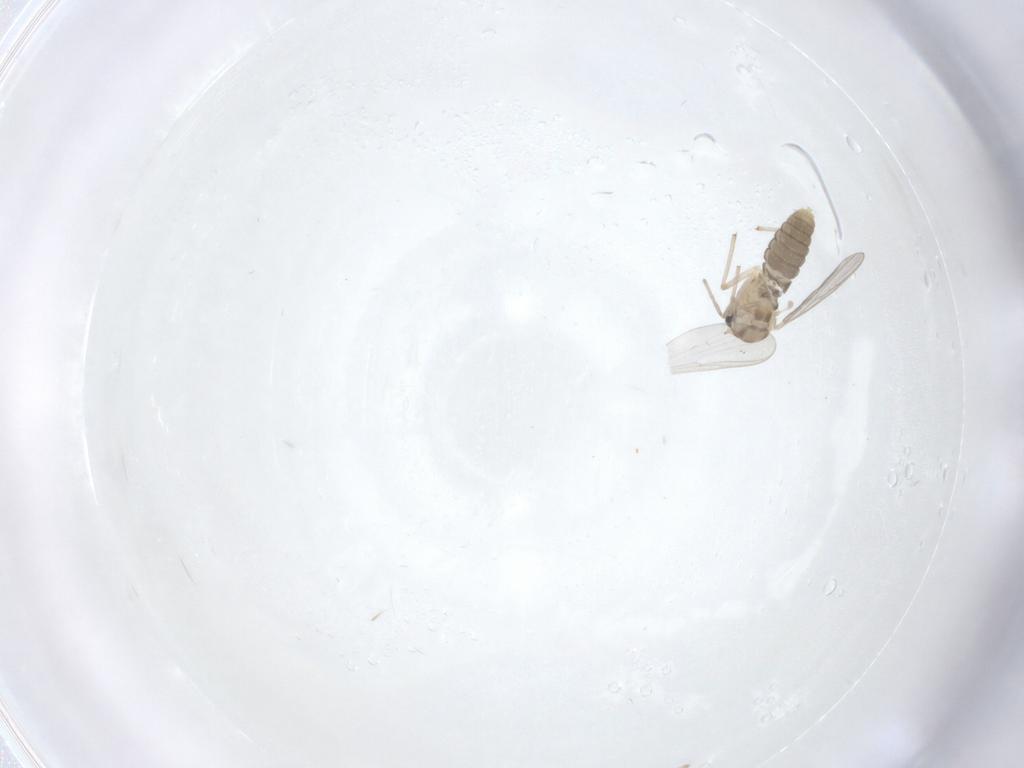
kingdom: Animalia
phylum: Arthropoda
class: Insecta
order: Diptera
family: Chironomidae
